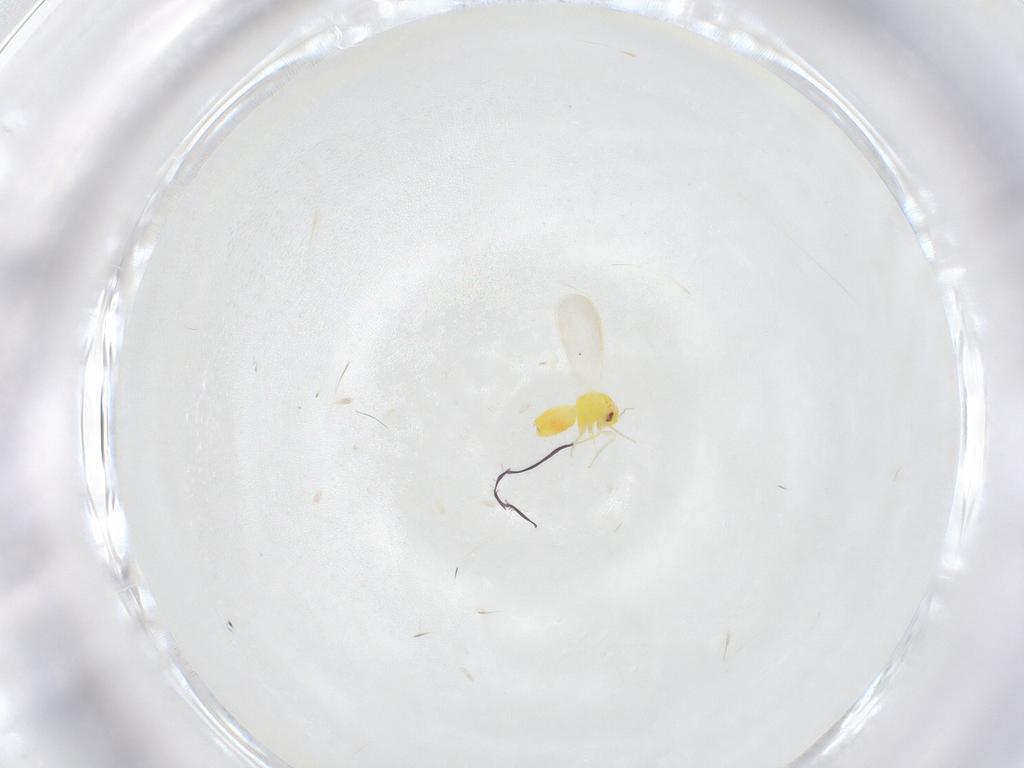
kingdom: Animalia
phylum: Arthropoda
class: Insecta
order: Hemiptera
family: Aleyrodidae
